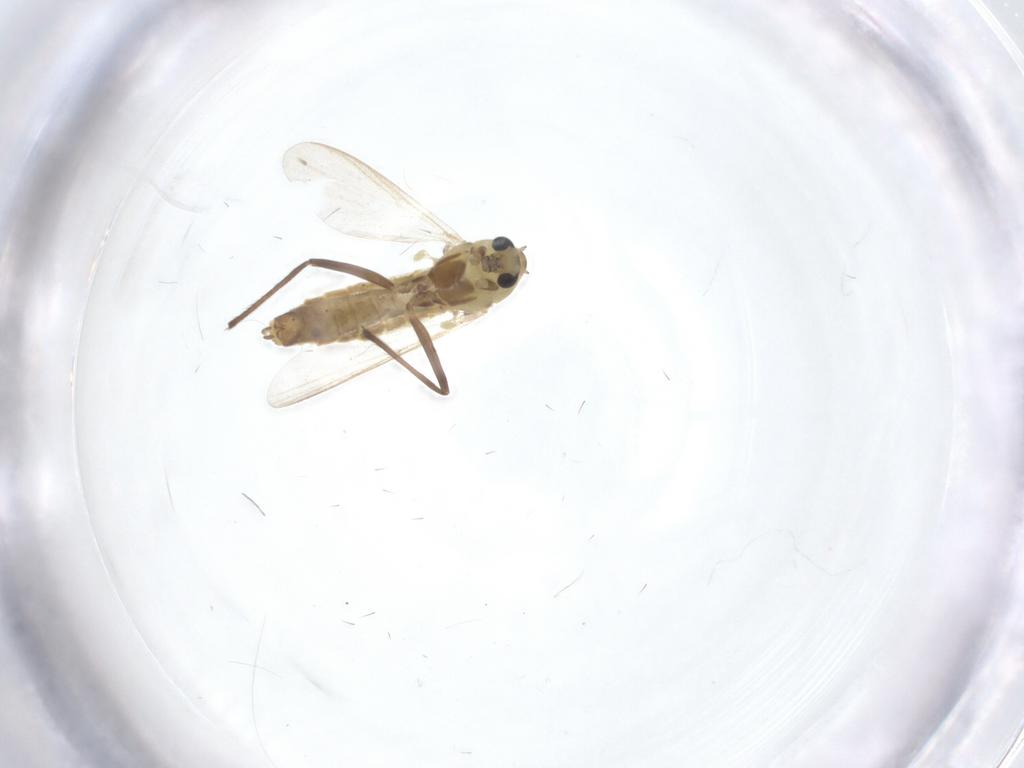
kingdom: Animalia
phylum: Arthropoda
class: Insecta
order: Diptera
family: Chironomidae
